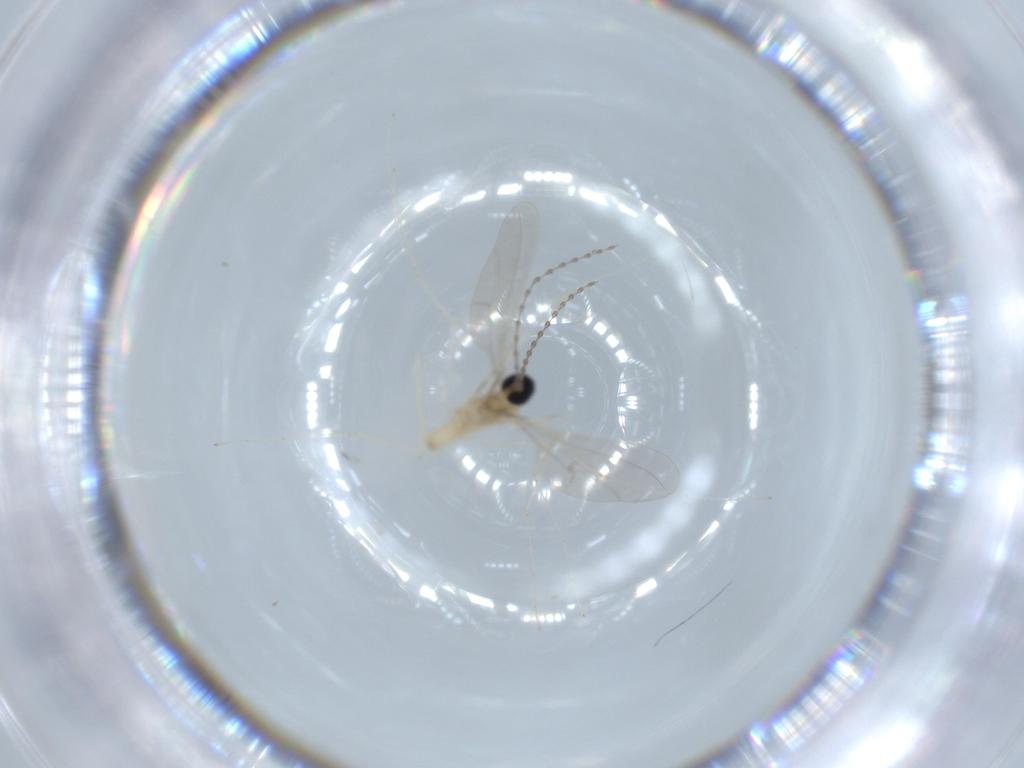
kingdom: Animalia
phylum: Arthropoda
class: Insecta
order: Diptera
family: Cecidomyiidae
